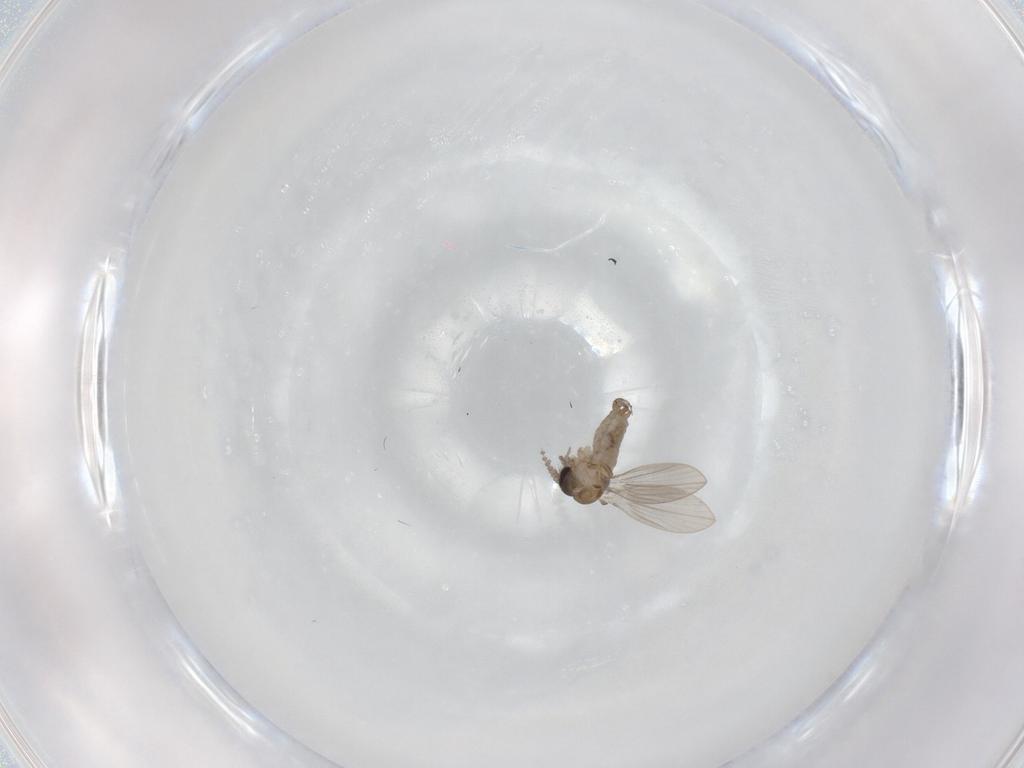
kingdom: Animalia
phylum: Arthropoda
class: Insecta
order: Diptera
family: Psychodidae
